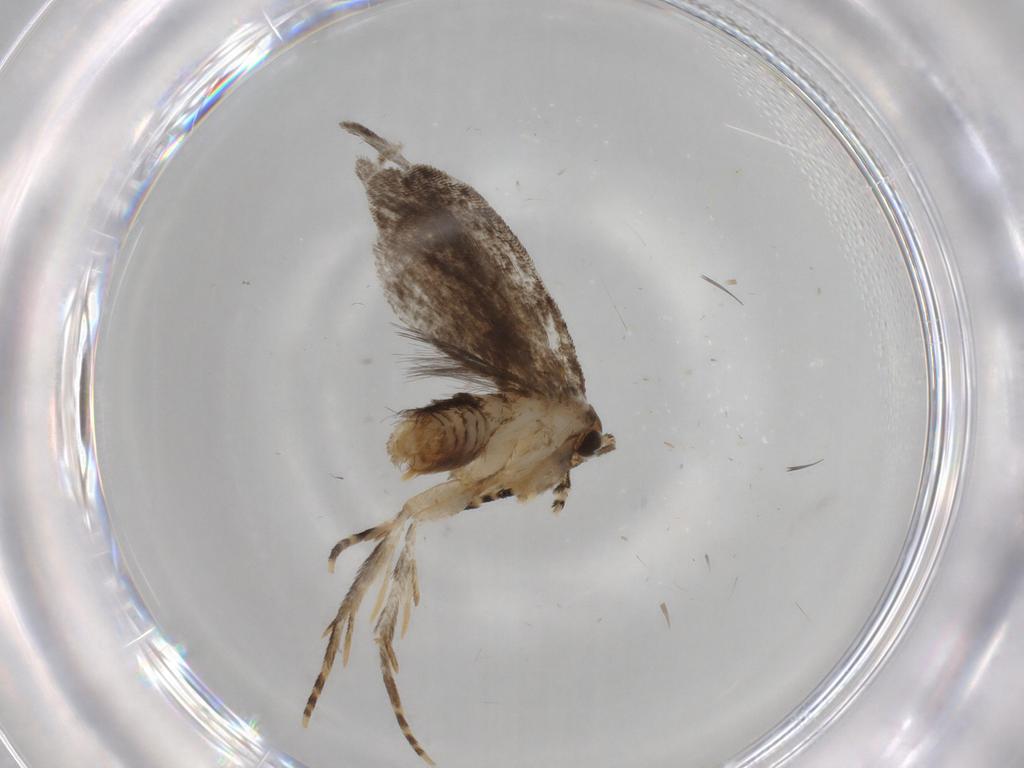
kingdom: Animalia
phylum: Arthropoda
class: Insecta
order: Lepidoptera
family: Dryadaulidae
